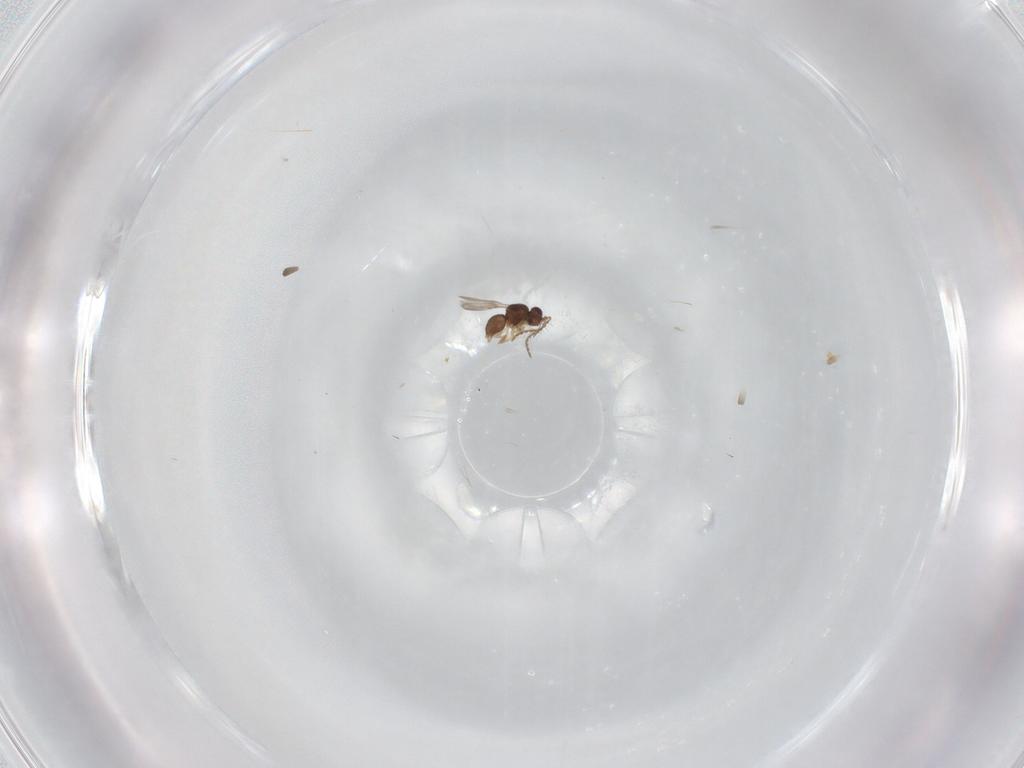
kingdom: Animalia
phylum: Arthropoda
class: Insecta
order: Hymenoptera
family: Ceraphronidae
